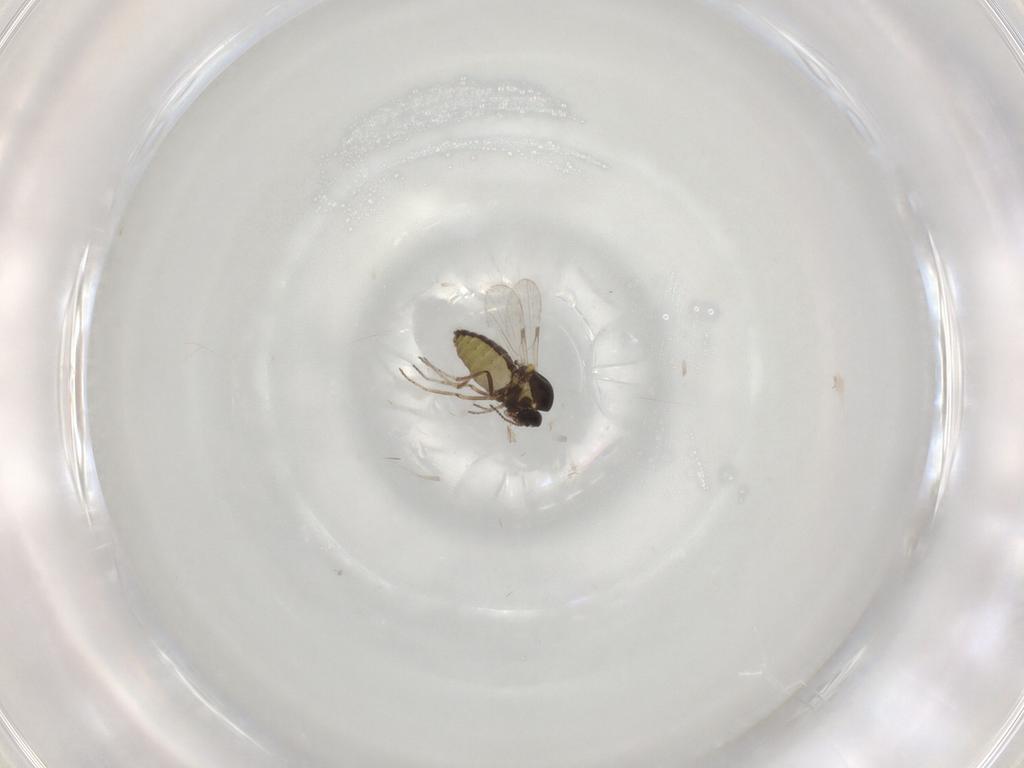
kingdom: Animalia
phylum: Arthropoda
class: Insecta
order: Diptera
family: Ceratopogonidae
